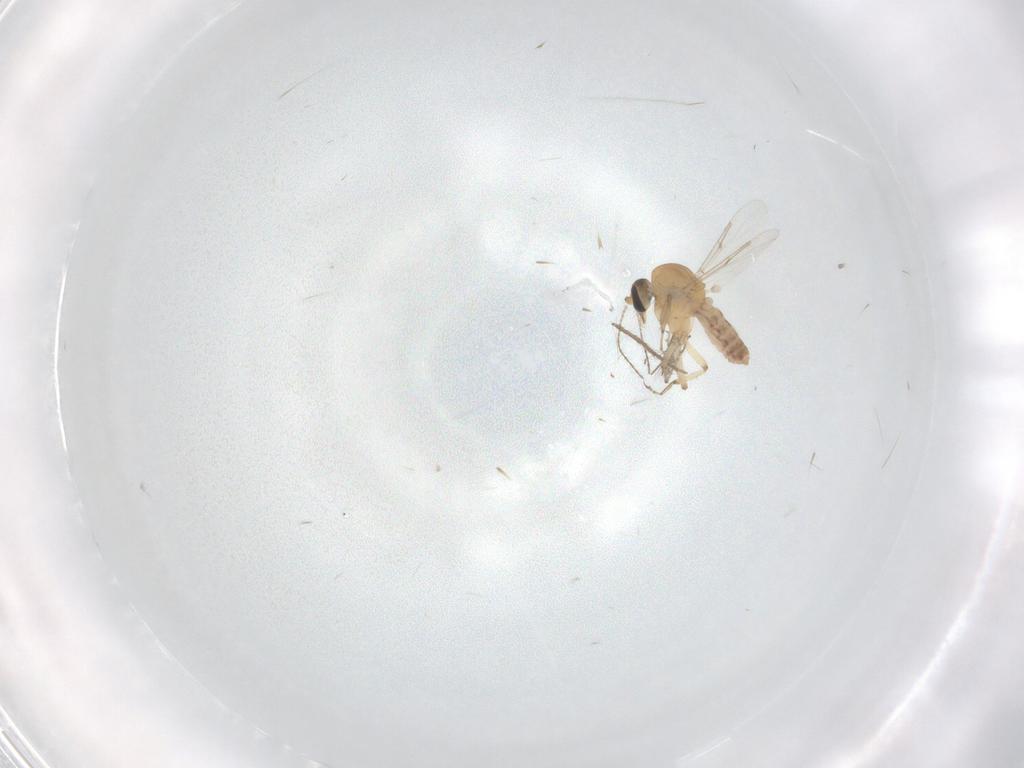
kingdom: Animalia
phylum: Arthropoda
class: Insecta
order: Diptera
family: Ceratopogonidae
